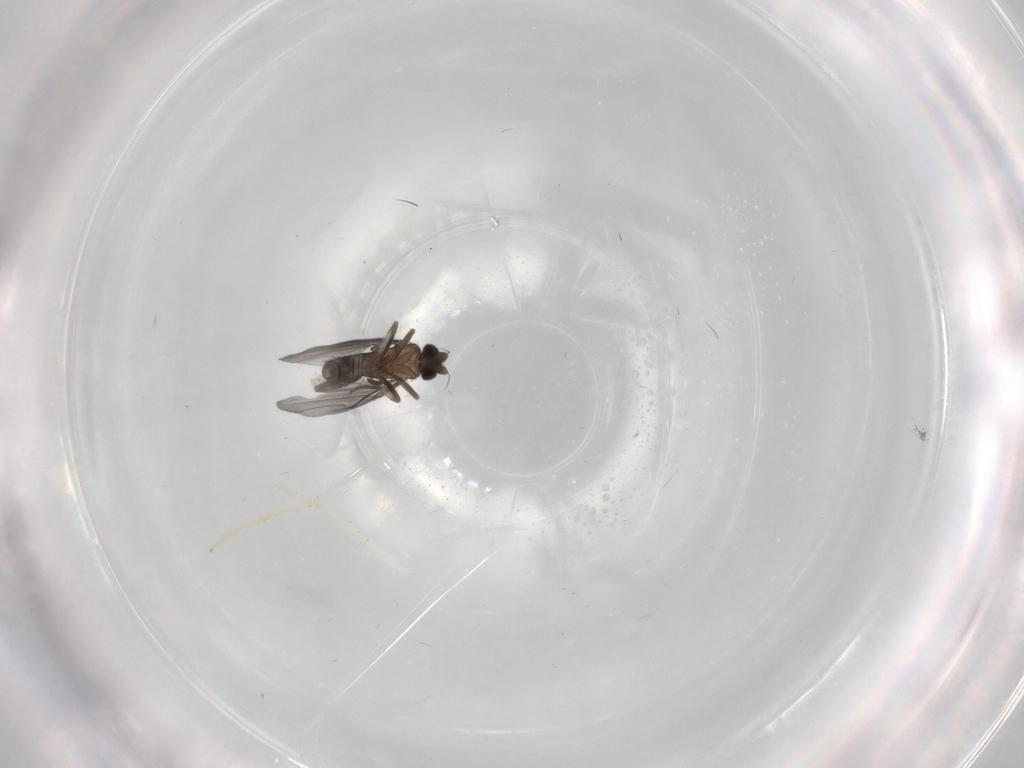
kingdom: Animalia
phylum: Arthropoda
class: Insecta
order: Diptera
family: Phoridae
